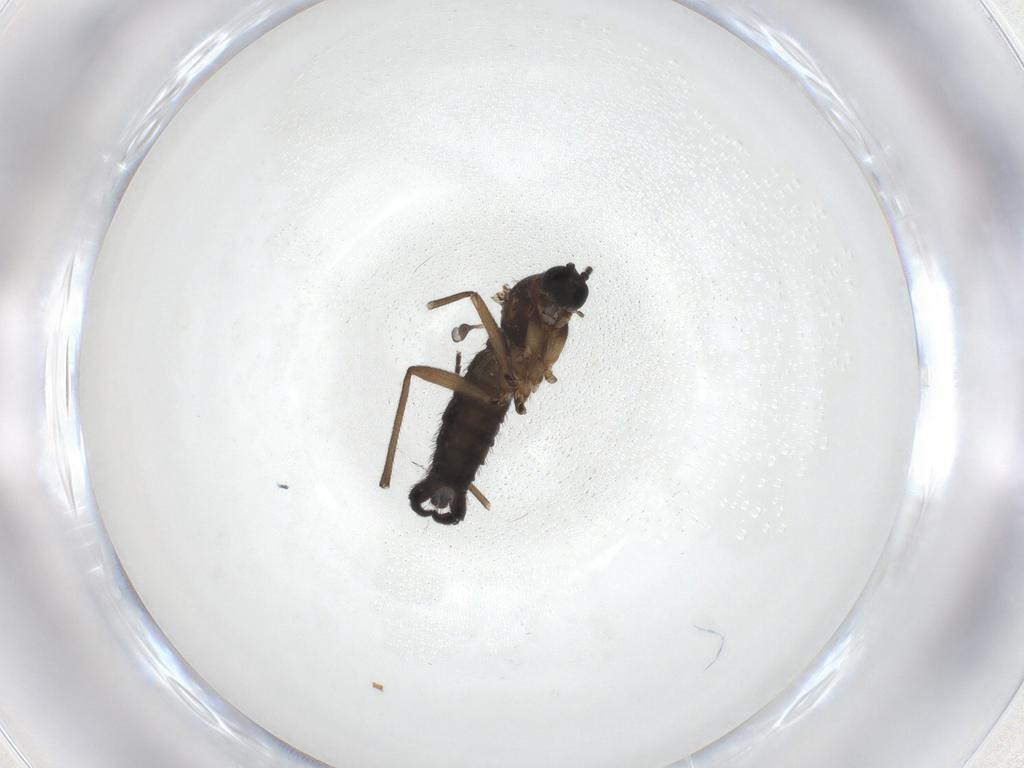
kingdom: Animalia
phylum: Arthropoda
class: Insecta
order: Diptera
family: Sciaridae
